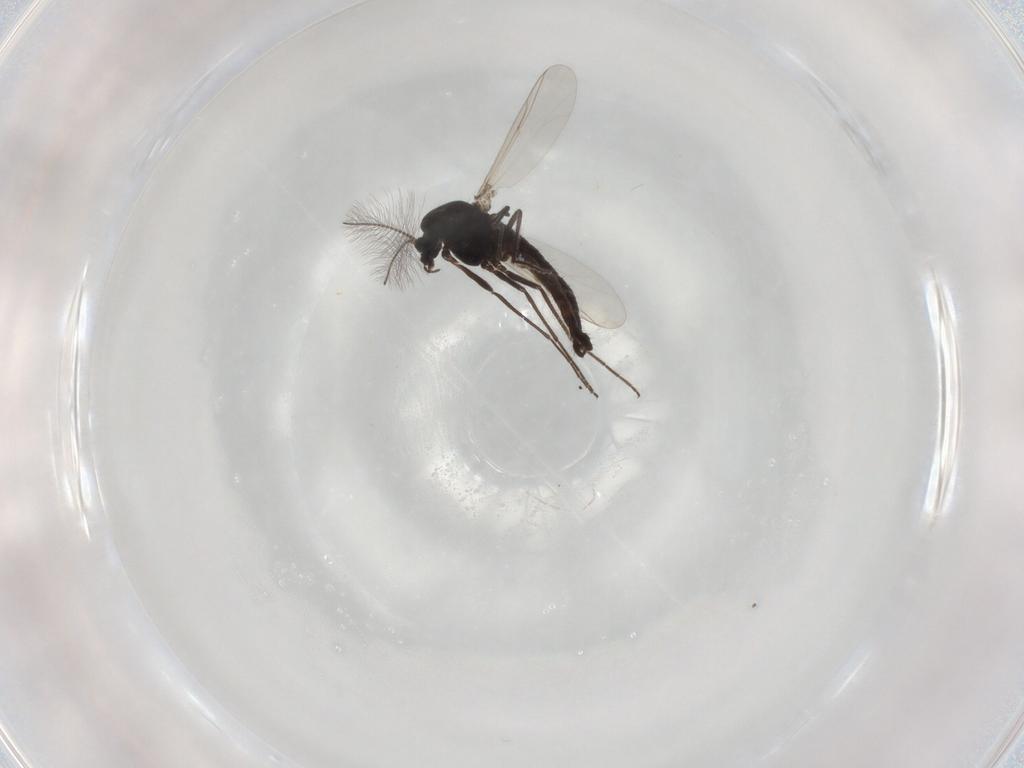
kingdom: Animalia
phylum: Arthropoda
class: Insecta
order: Diptera
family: Chironomidae
